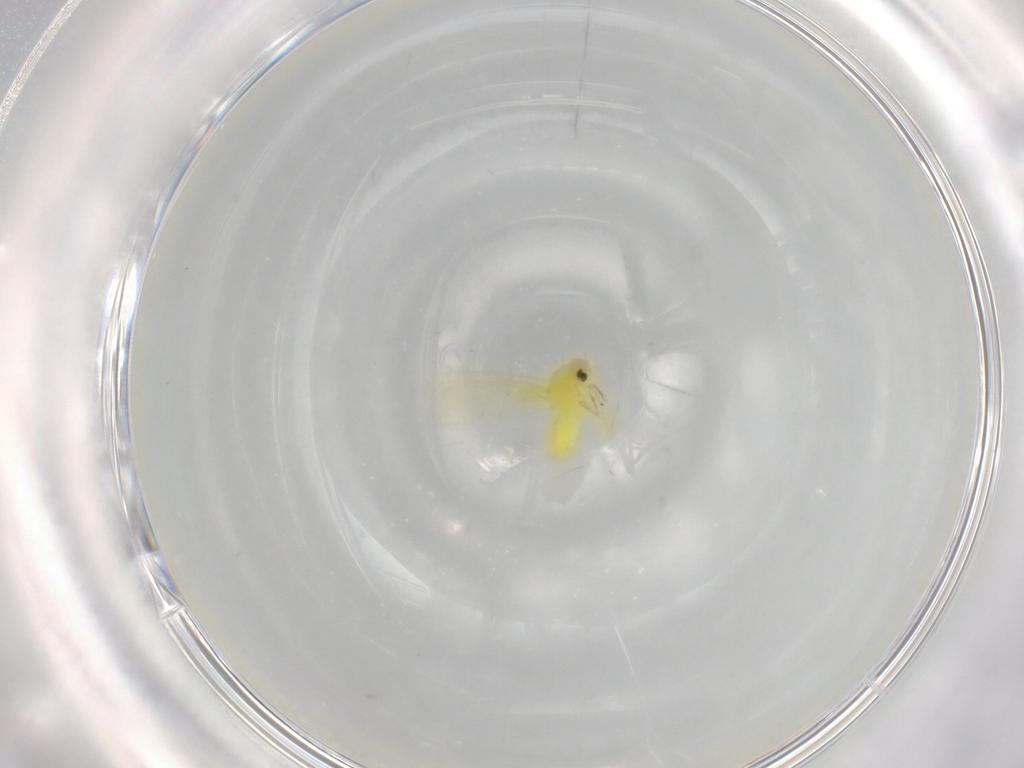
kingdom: Animalia
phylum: Arthropoda
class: Insecta
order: Hemiptera
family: Aleyrodidae
